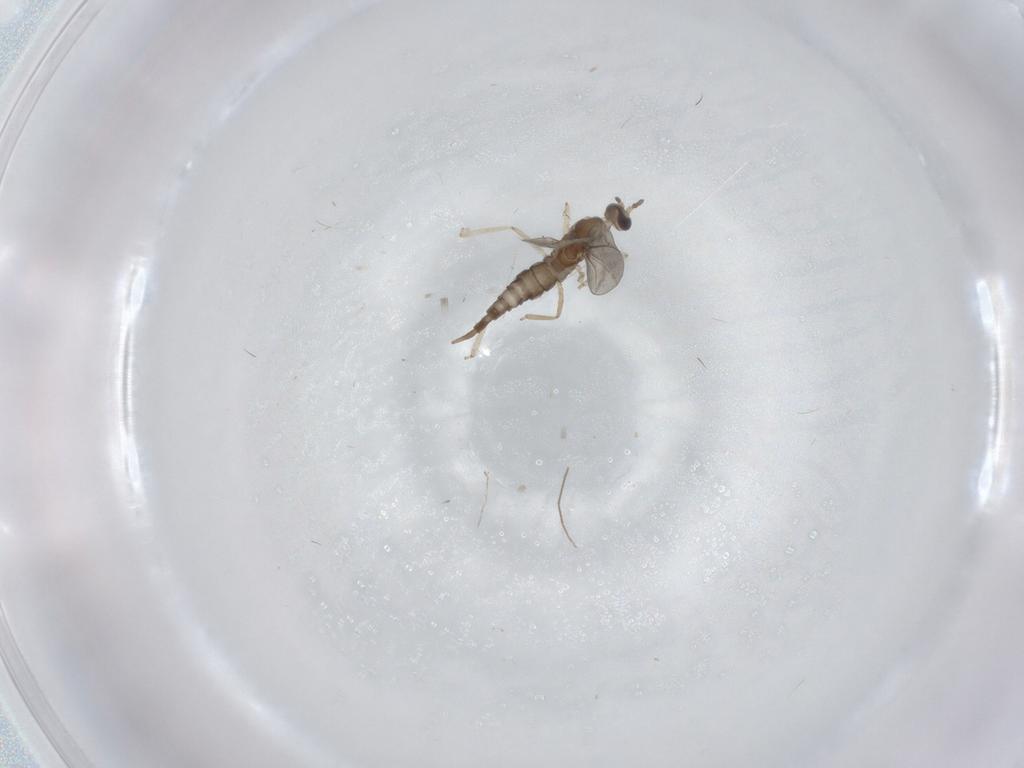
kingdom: Animalia
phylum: Arthropoda
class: Insecta
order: Diptera
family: Cecidomyiidae
